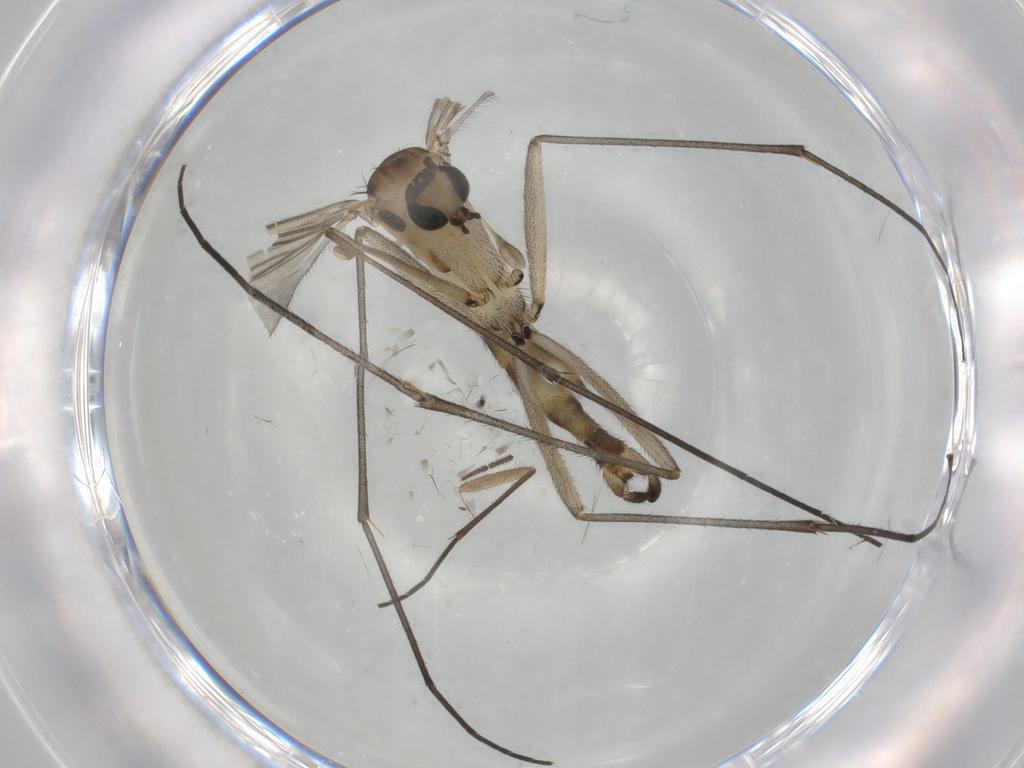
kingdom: Animalia
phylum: Arthropoda
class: Insecta
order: Diptera
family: Sciaridae
